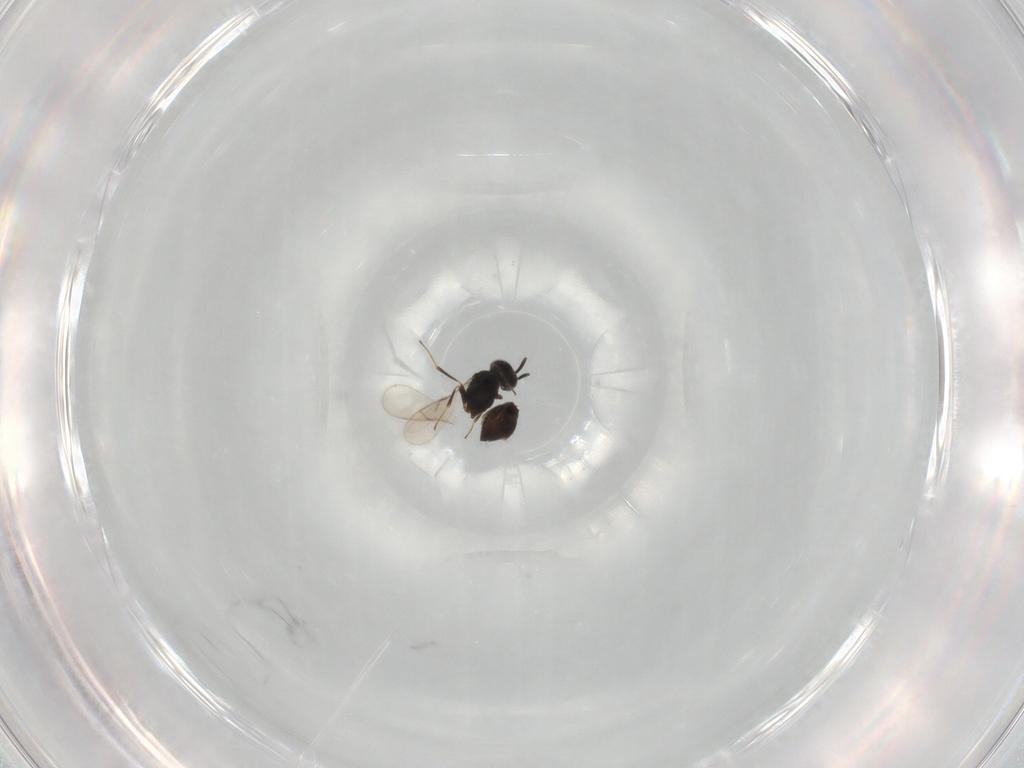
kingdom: Animalia
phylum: Arthropoda
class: Insecta
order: Hymenoptera
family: Scelionidae
